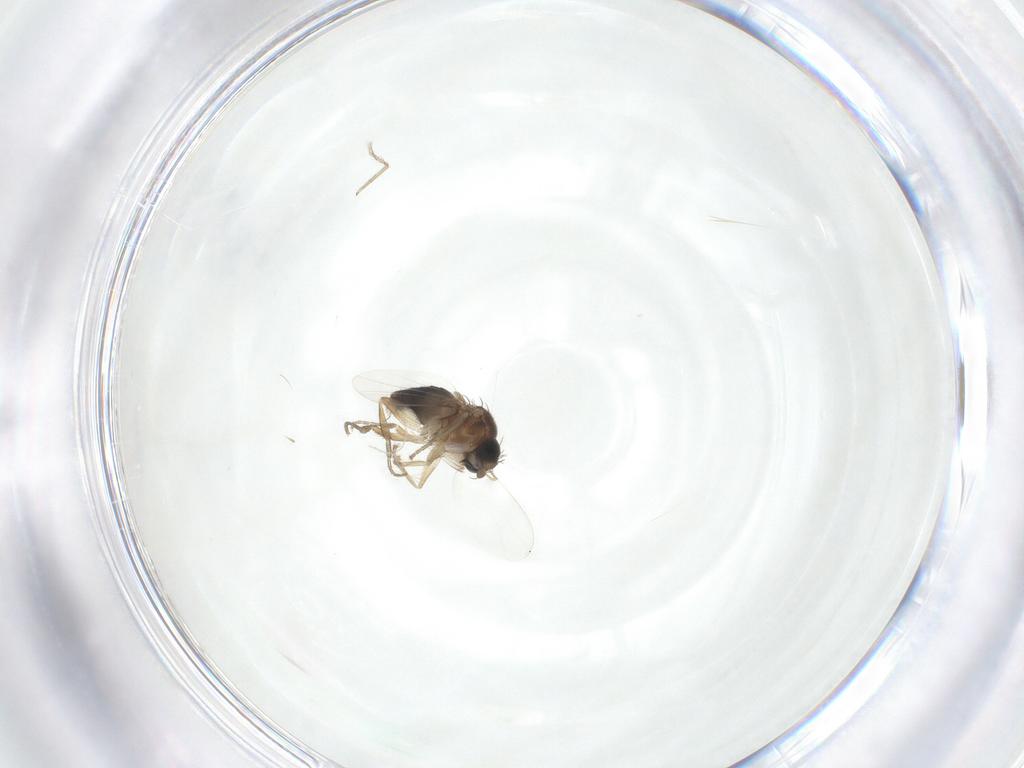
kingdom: Animalia
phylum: Arthropoda
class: Insecta
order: Diptera
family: Phoridae
